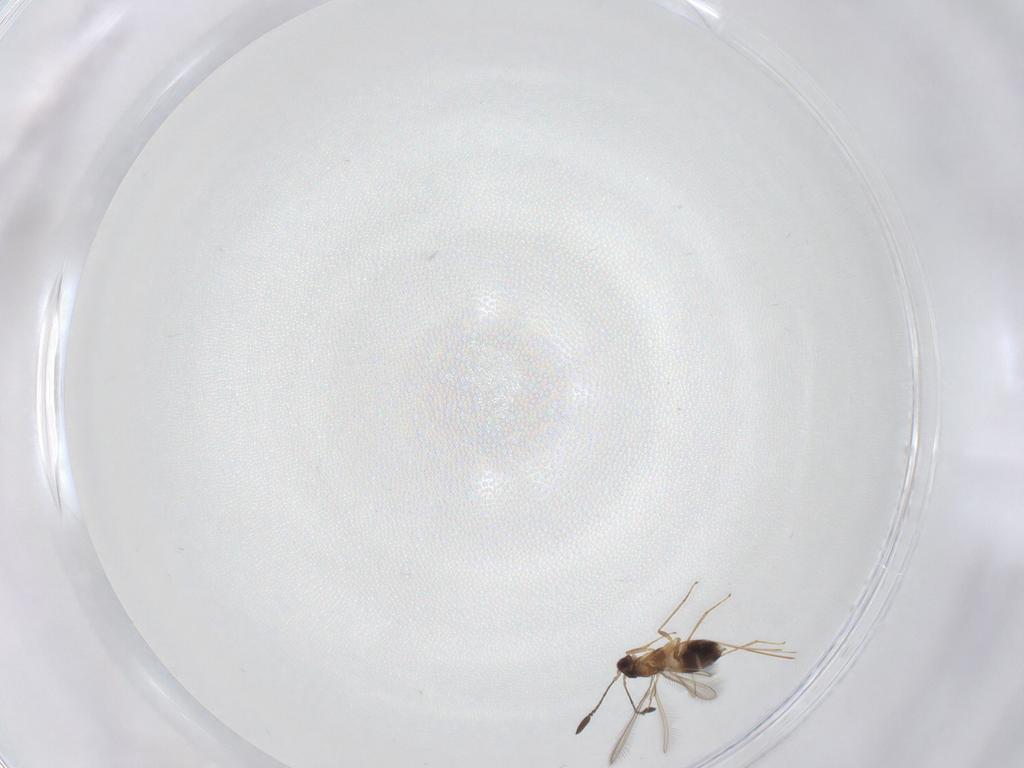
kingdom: Animalia
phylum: Arthropoda
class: Insecta
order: Hymenoptera
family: Mymaridae
